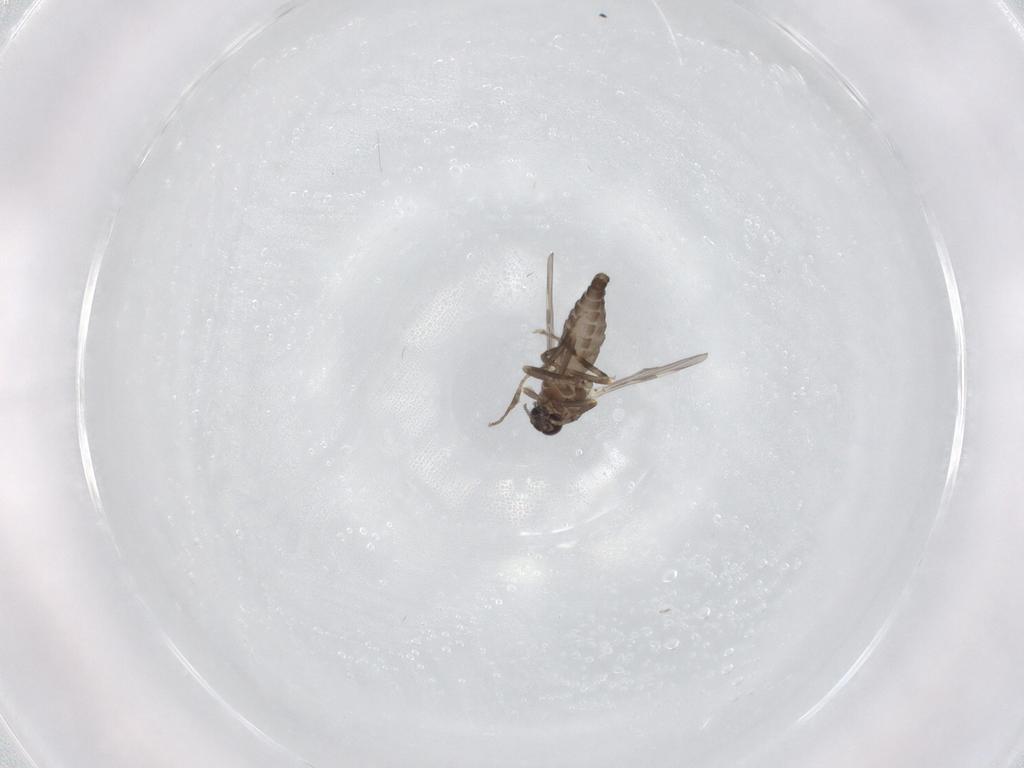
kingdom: Animalia
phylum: Arthropoda
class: Insecta
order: Diptera
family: Ceratopogonidae
